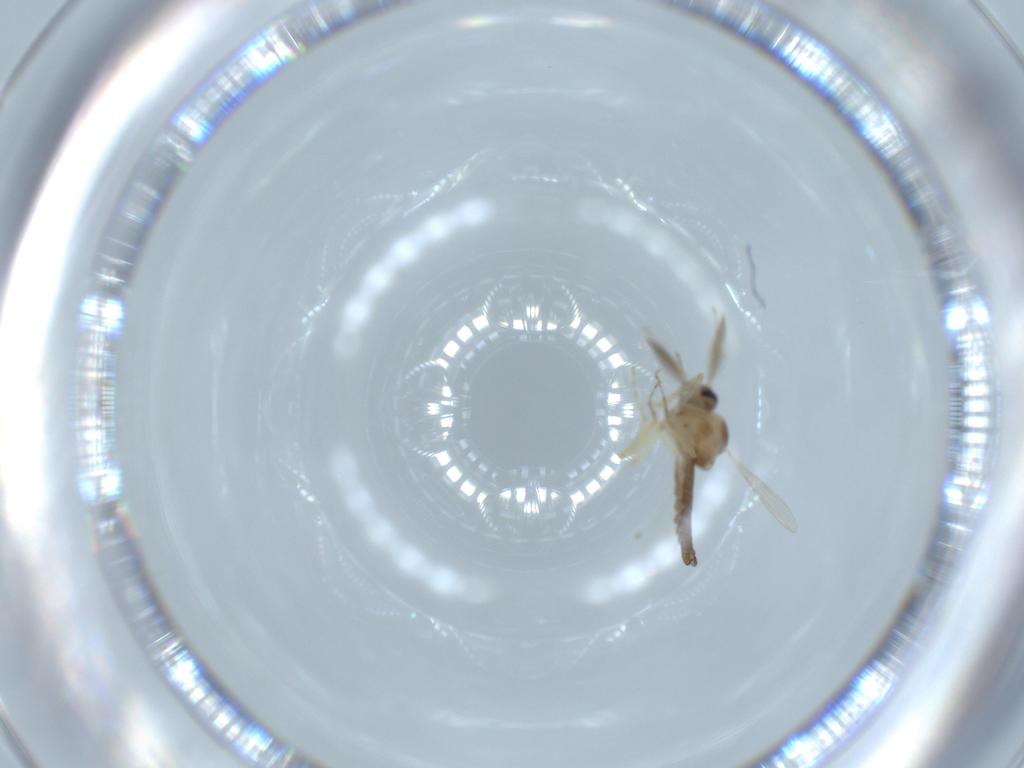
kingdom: Animalia
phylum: Arthropoda
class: Insecta
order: Diptera
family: Ceratopogonidae
